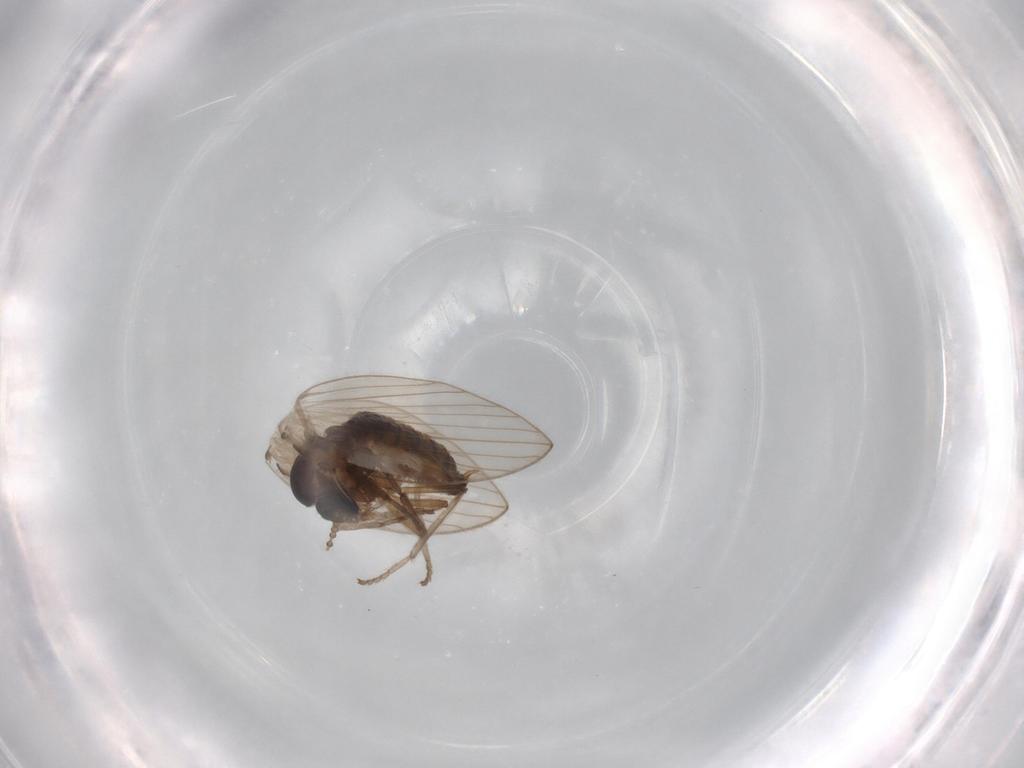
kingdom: Animalia
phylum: Arthropoda
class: Insecta
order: Diptera
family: Psychodidae
